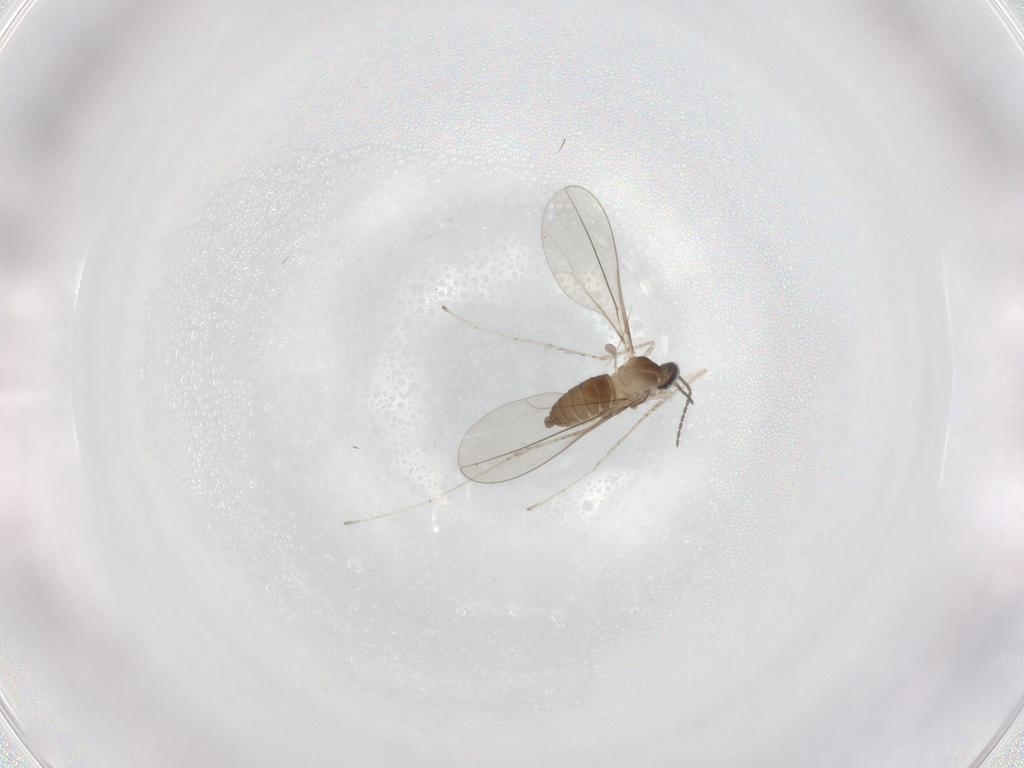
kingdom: Animalia
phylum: Arthropoda
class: Insecta
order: Diptera
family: Cecidomyiidae
